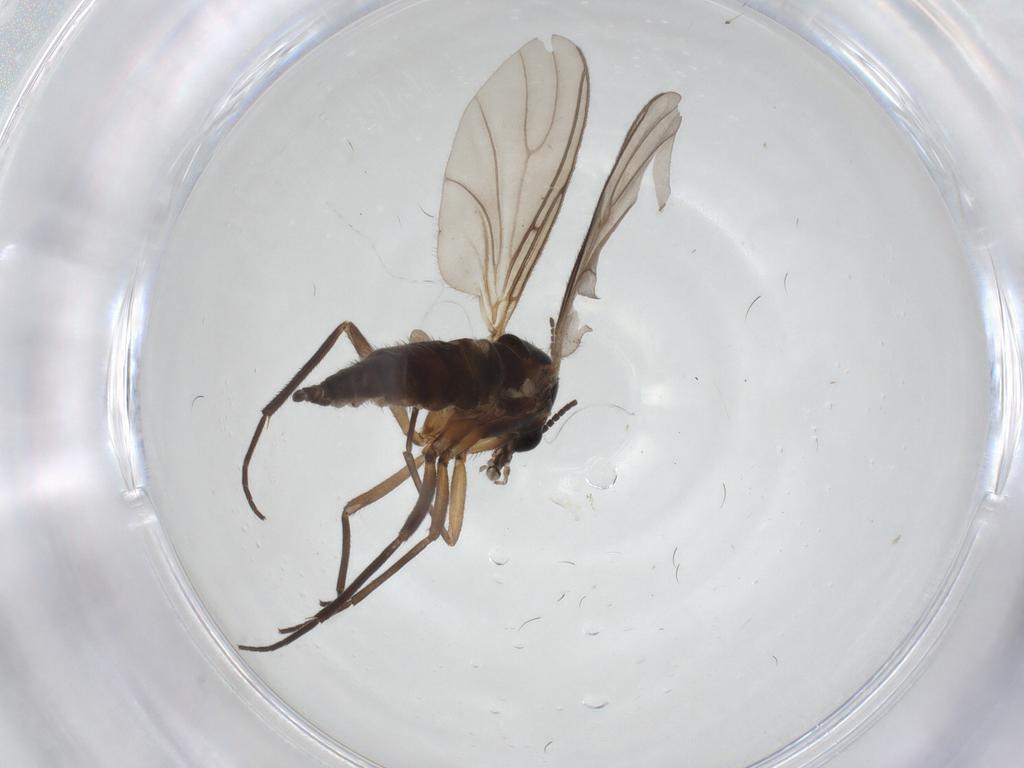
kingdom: Animalia
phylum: Arthropoda
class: Insecta
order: Diptera
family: Sciaridae
